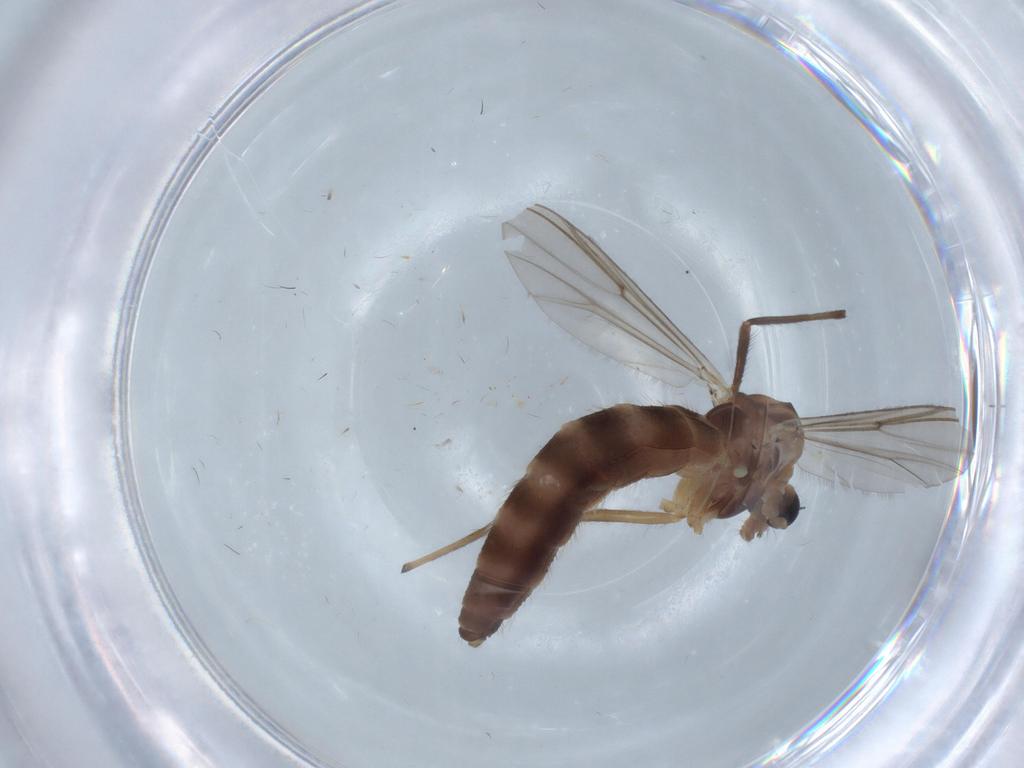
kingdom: Animalia
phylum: Arthropoda
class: Insecta
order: Diptera
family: Chironomidae
